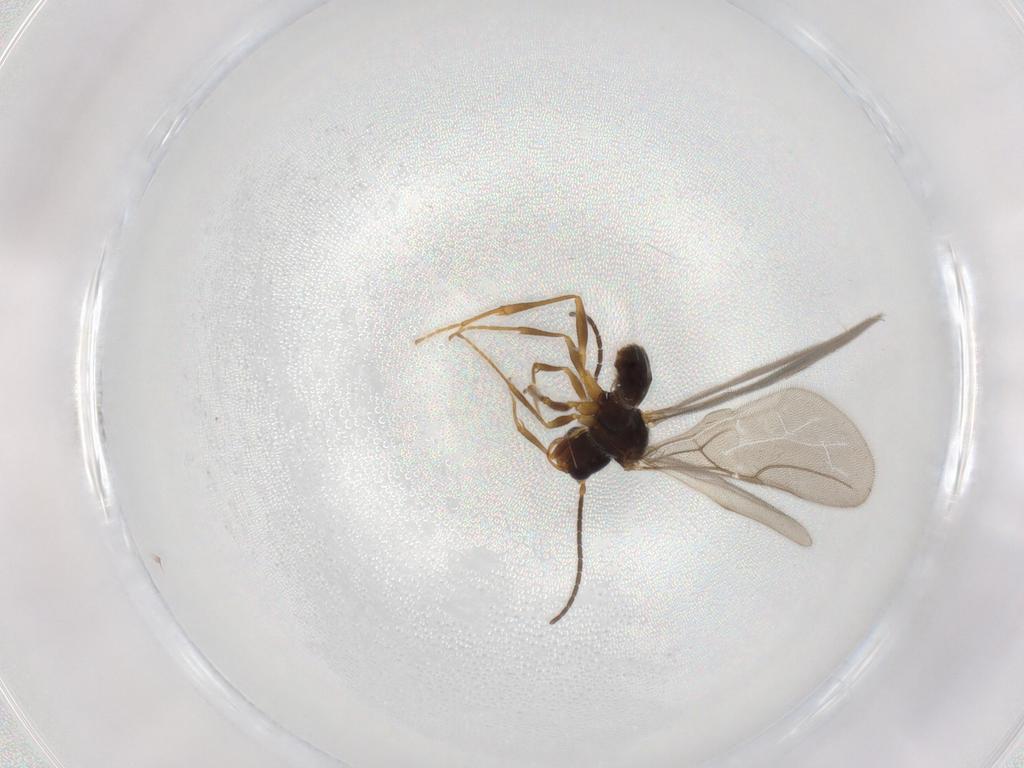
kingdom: Animalia
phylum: Arthropoda
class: Insecta
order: Hymenoptera
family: Bethylidae
